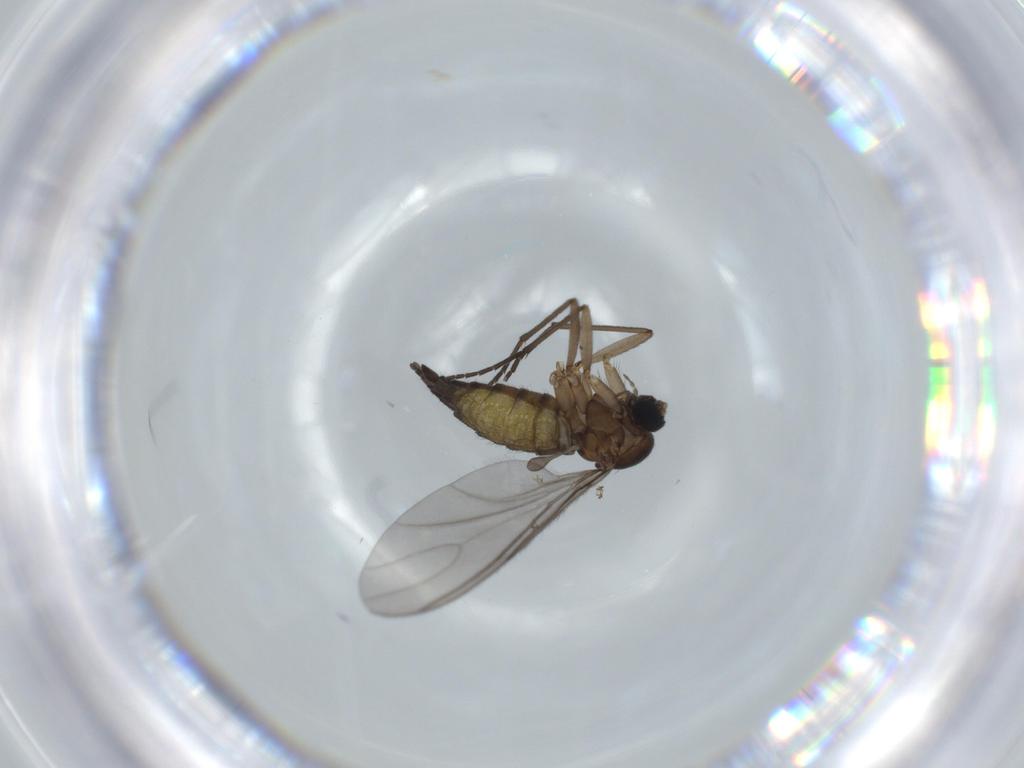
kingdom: Animalia
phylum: Arthropoda
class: Insecta
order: Diptera
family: Sciaridae
